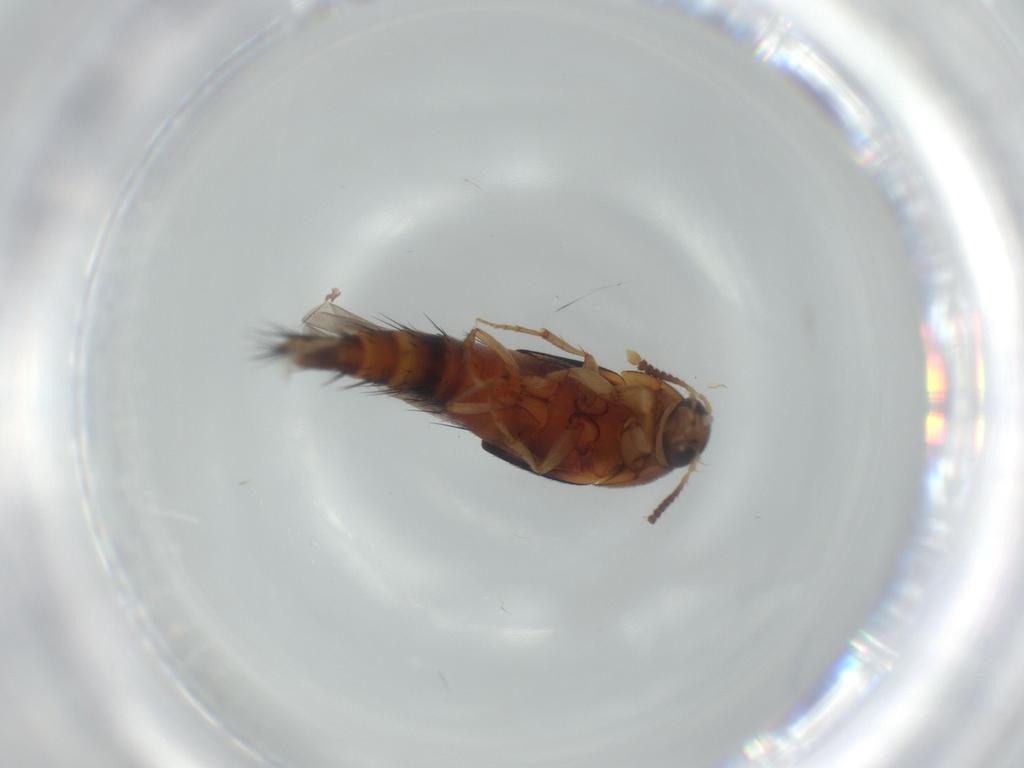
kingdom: Animalia
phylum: Arthropoda
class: Insecta
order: Coleoptera
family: Staphylinidae
